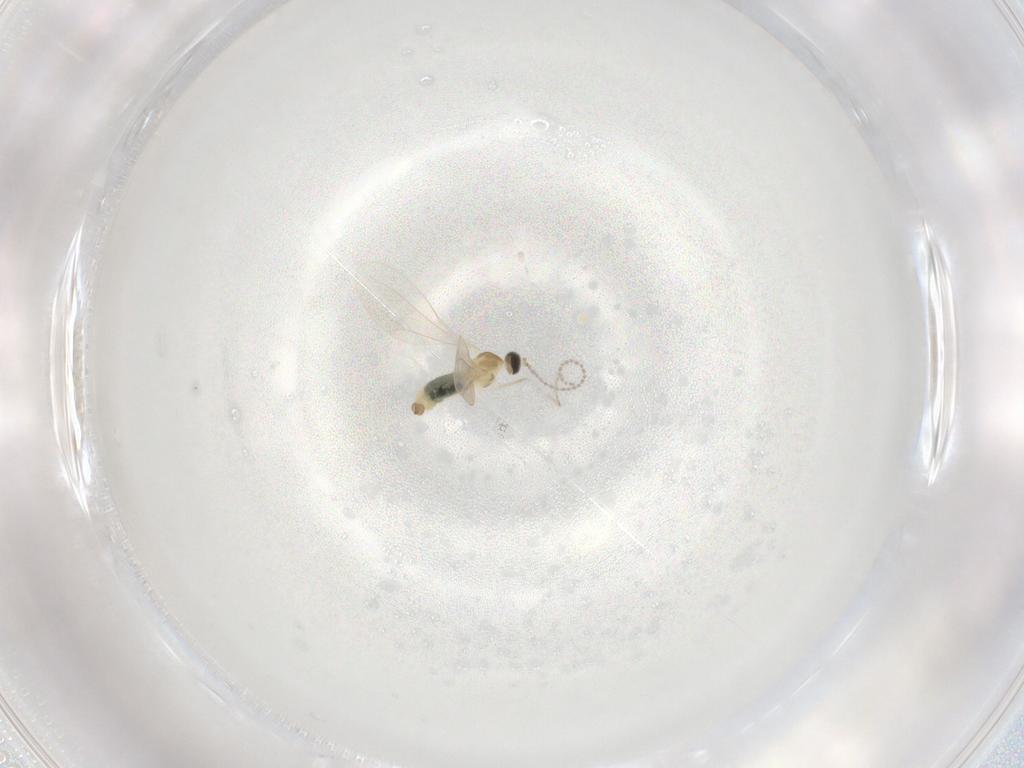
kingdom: Animalia
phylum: Arthropoda
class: Insecta
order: Diptera
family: Cecidomyiidae
